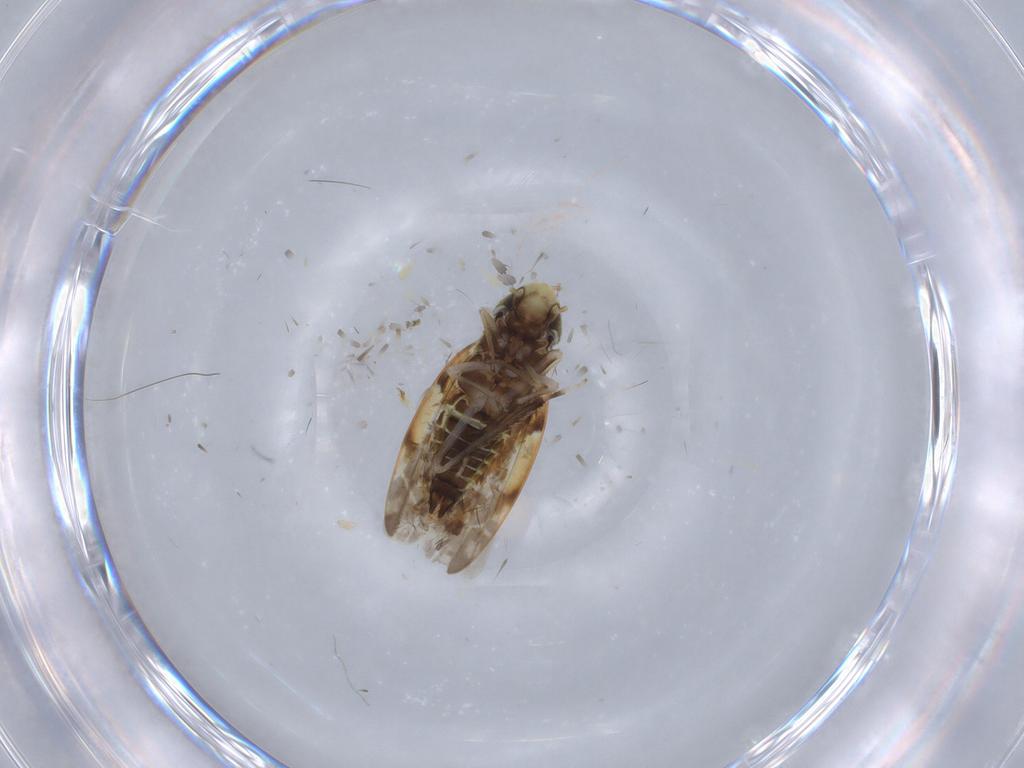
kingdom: Animalia
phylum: Arthropoda
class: Insecta
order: Hemiptera
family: Cicadellidae
